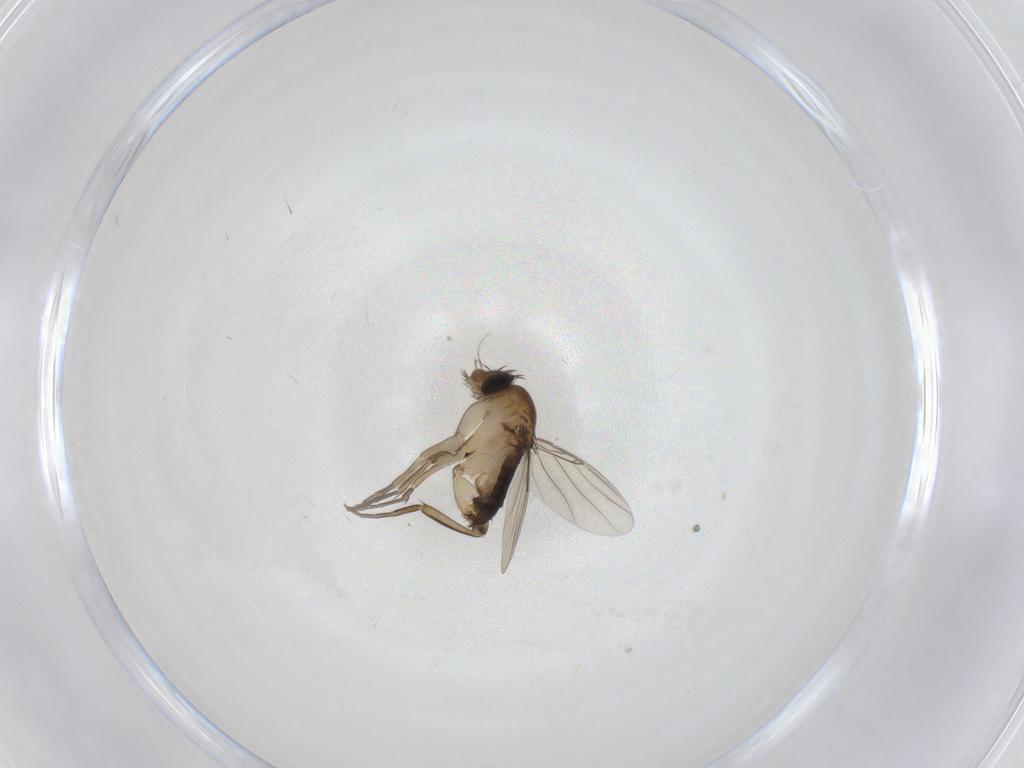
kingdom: Animalia
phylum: Arthropoda
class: Insecta
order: Diptera
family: Phoridae
